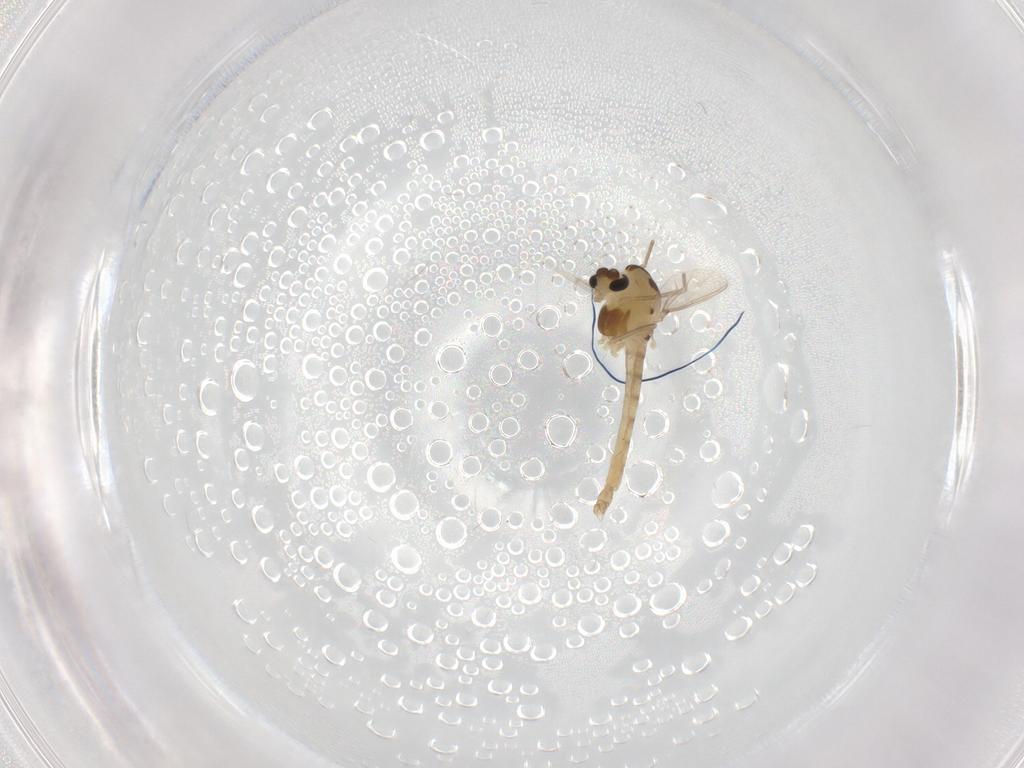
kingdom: Animalia
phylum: Arthropoda
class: Insecta
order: Diptera
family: Chironomidae
